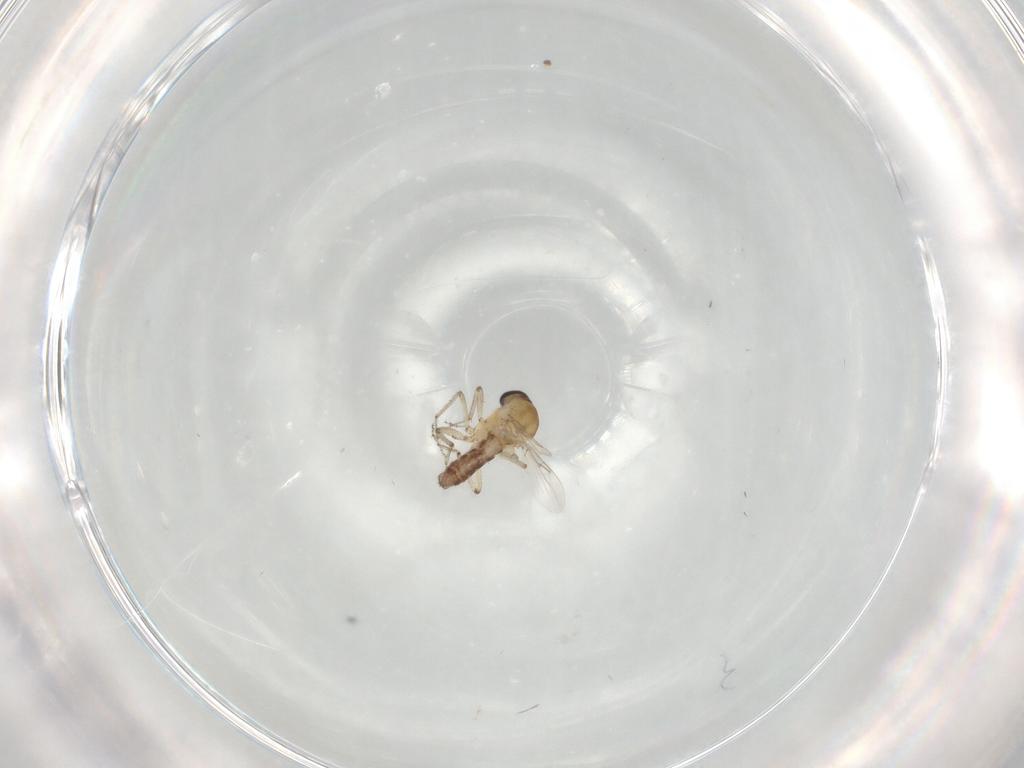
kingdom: Animalia
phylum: Arthropoda
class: Insecta
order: Diptera
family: Ceratopogonidae
